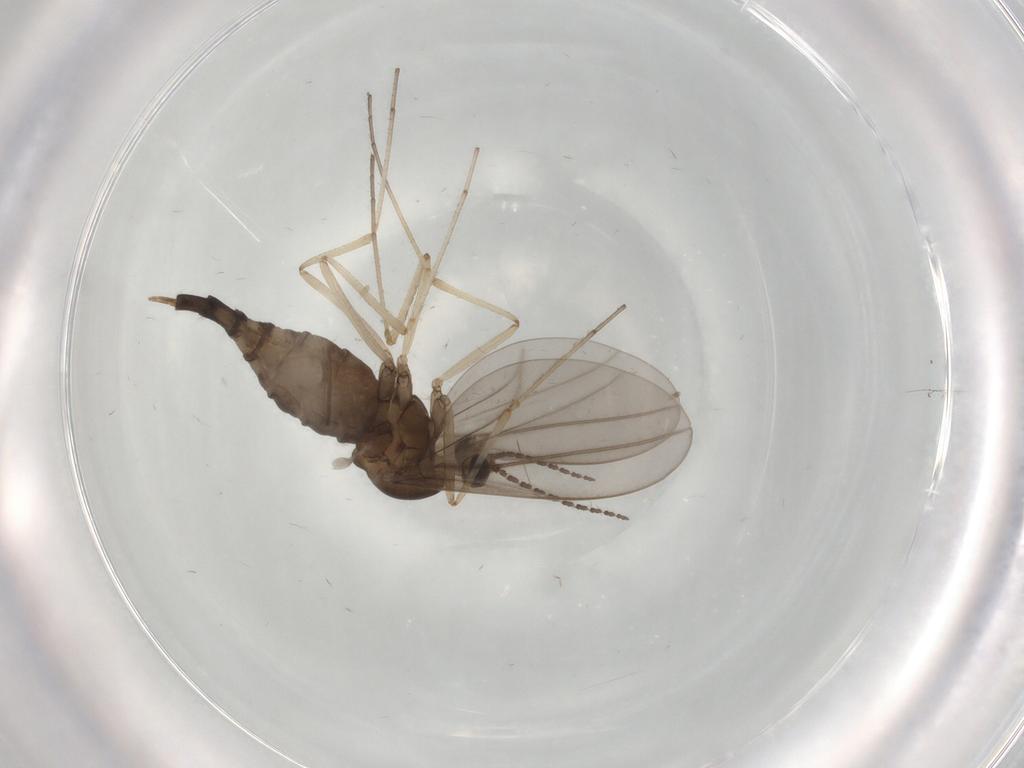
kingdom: Animalia
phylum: Arthropoda
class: Insecta
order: Diptera
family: Cecidomyiidae
